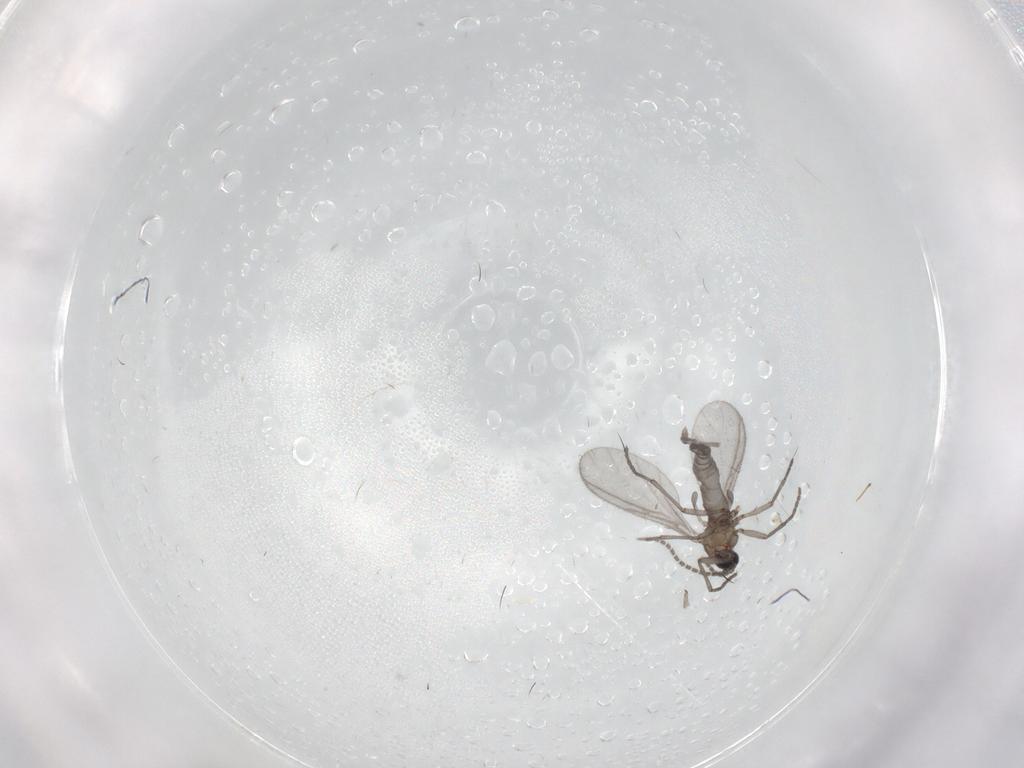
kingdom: Animalia
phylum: Arthropoda
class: Insecta
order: Diptera
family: Sciaridae
